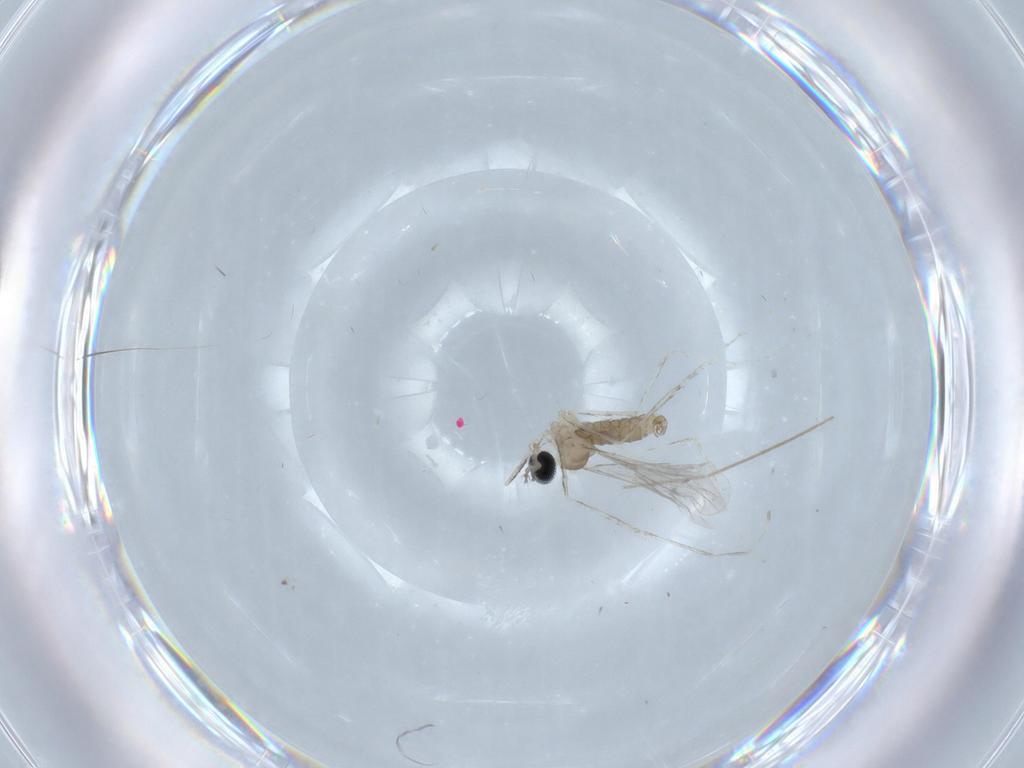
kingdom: Animalia
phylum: Arthropoda
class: Insecta
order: Diptera
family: Cecidomyiidae
